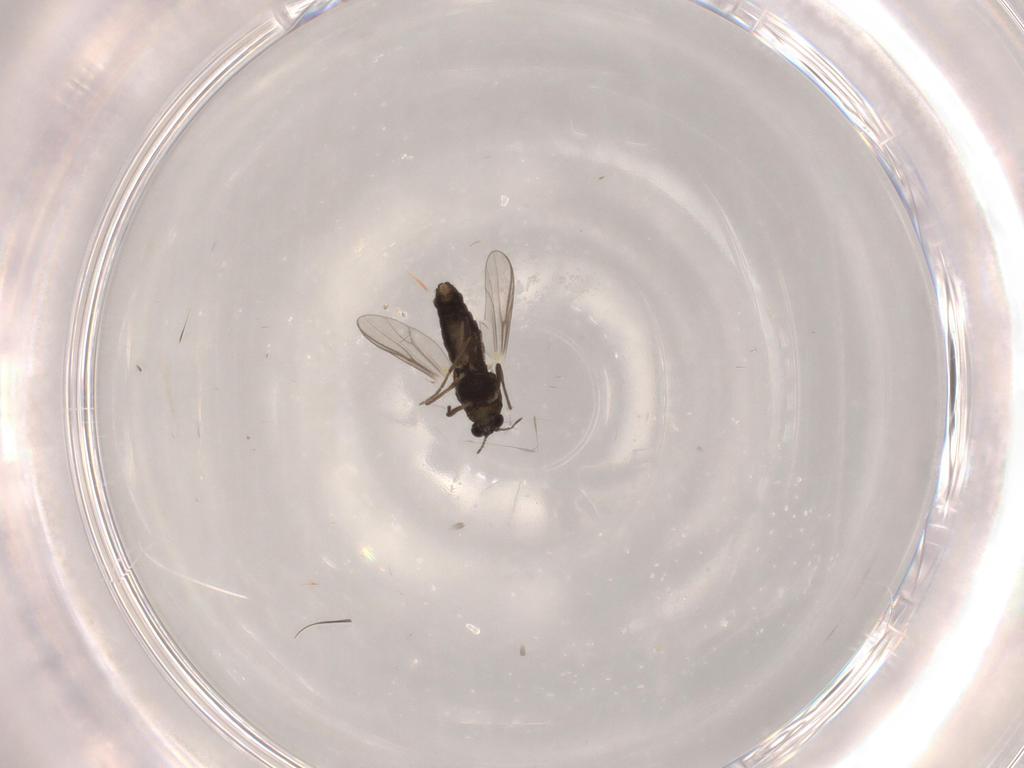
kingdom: Animalia
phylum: Arthropoda
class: Insecta
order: Diptera
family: Chironomidae
